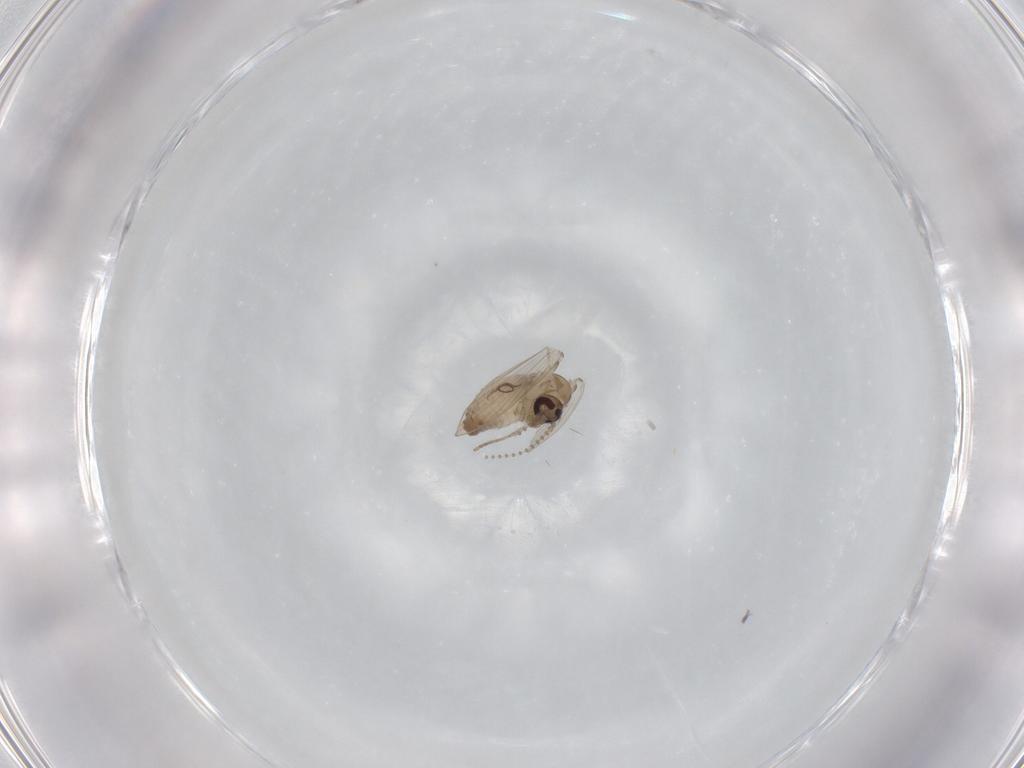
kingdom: Animalia
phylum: Arthropoda
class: Insecta
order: Diptera
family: Psychodidae
